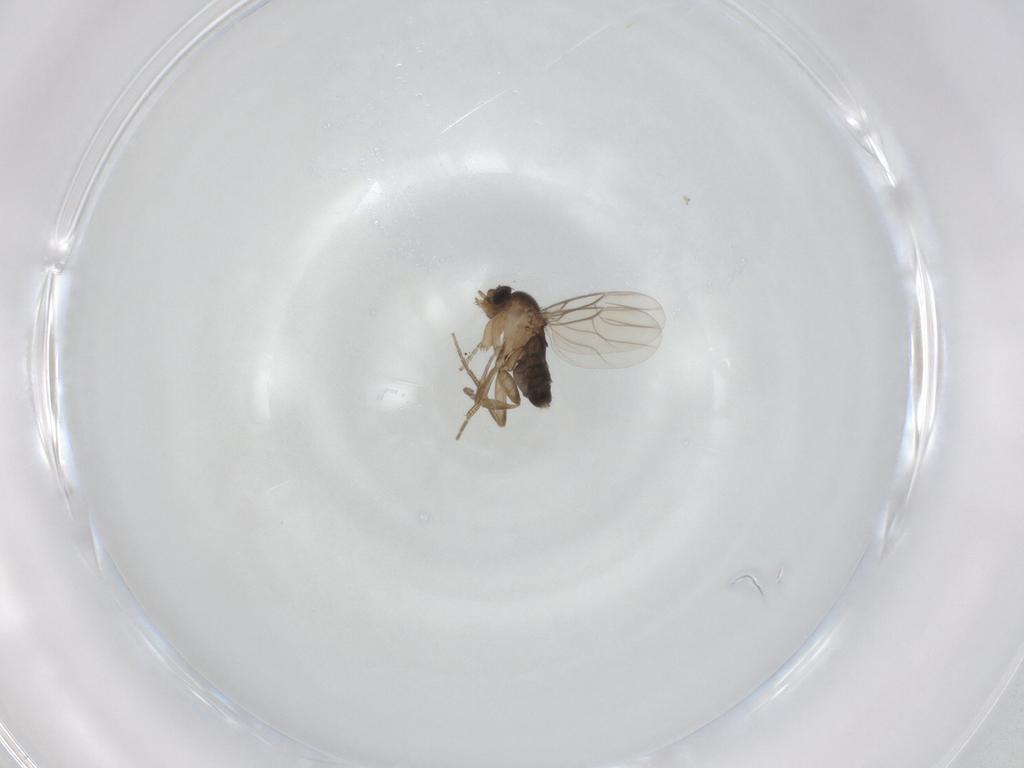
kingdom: Animalia
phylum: Arthropoda
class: Insecta
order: Diptera
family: Phoridae
